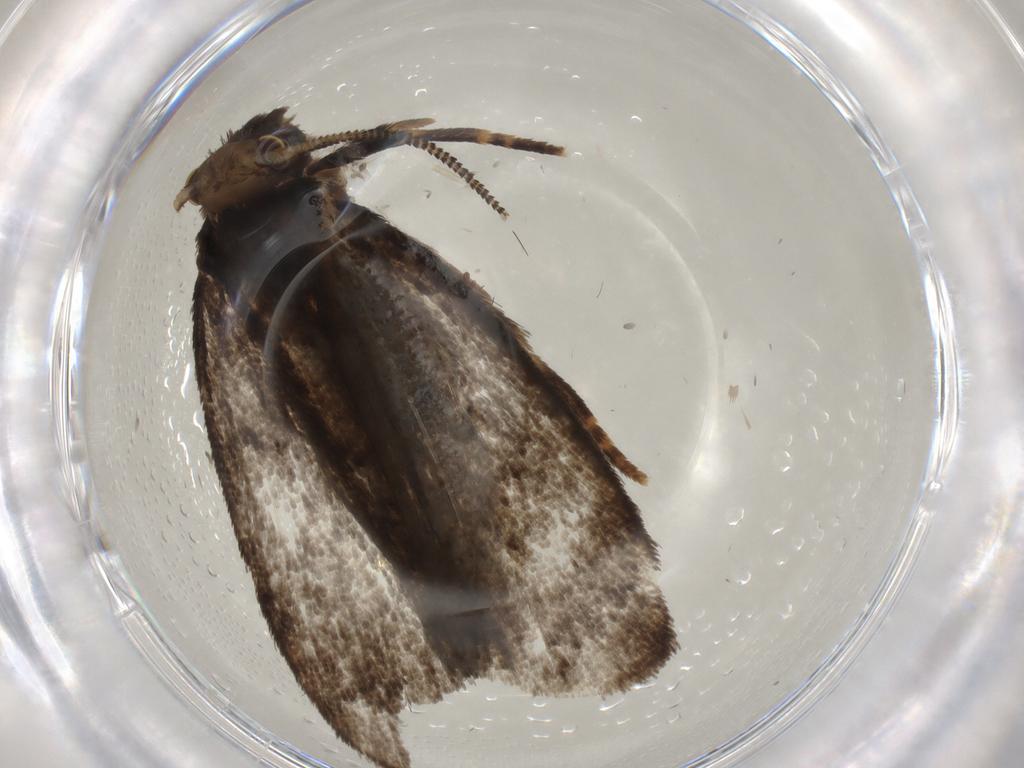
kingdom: Animalia
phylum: Arthropoda
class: Insecta
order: Lepidoptera
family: Tineidae
